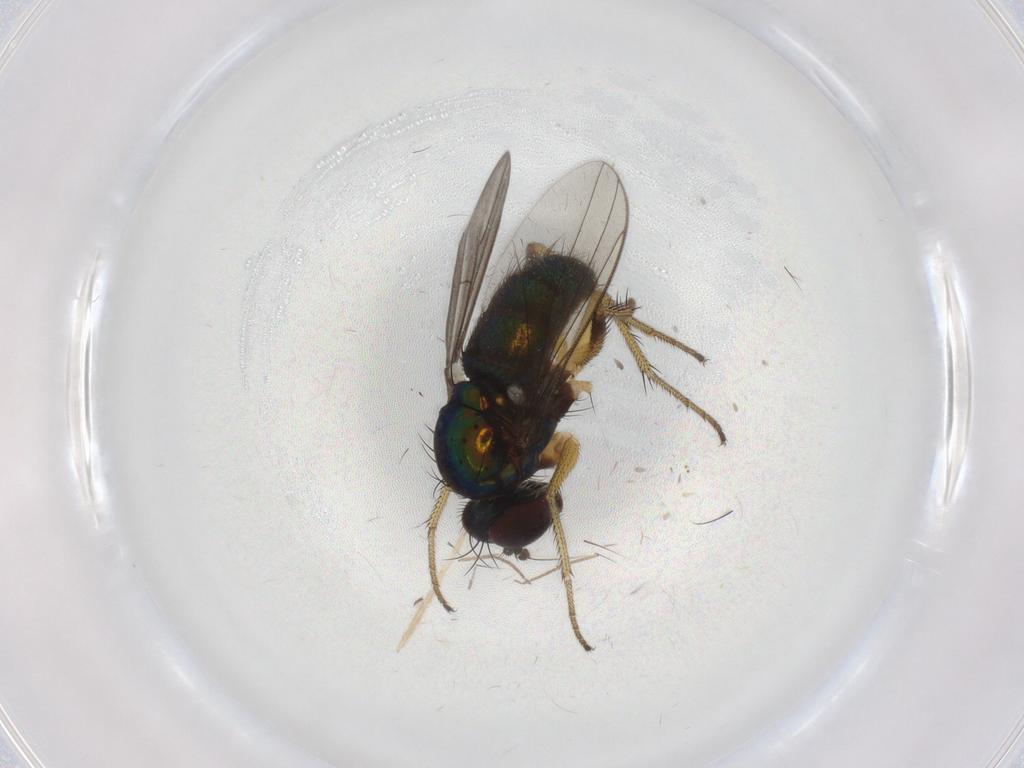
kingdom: Animalia
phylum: Arthropoda
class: Insecta
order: Diptera
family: Dolichopodidae
